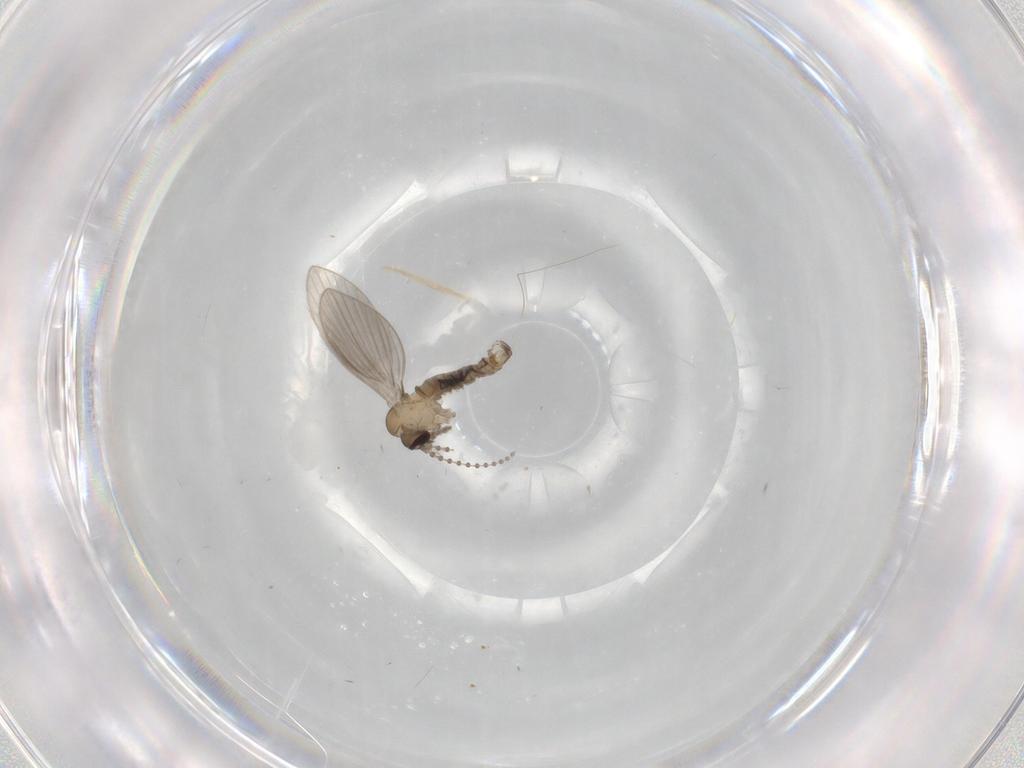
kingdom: Animalia
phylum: Arthropoda
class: Insecta
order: Diptera
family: Psychodidae
